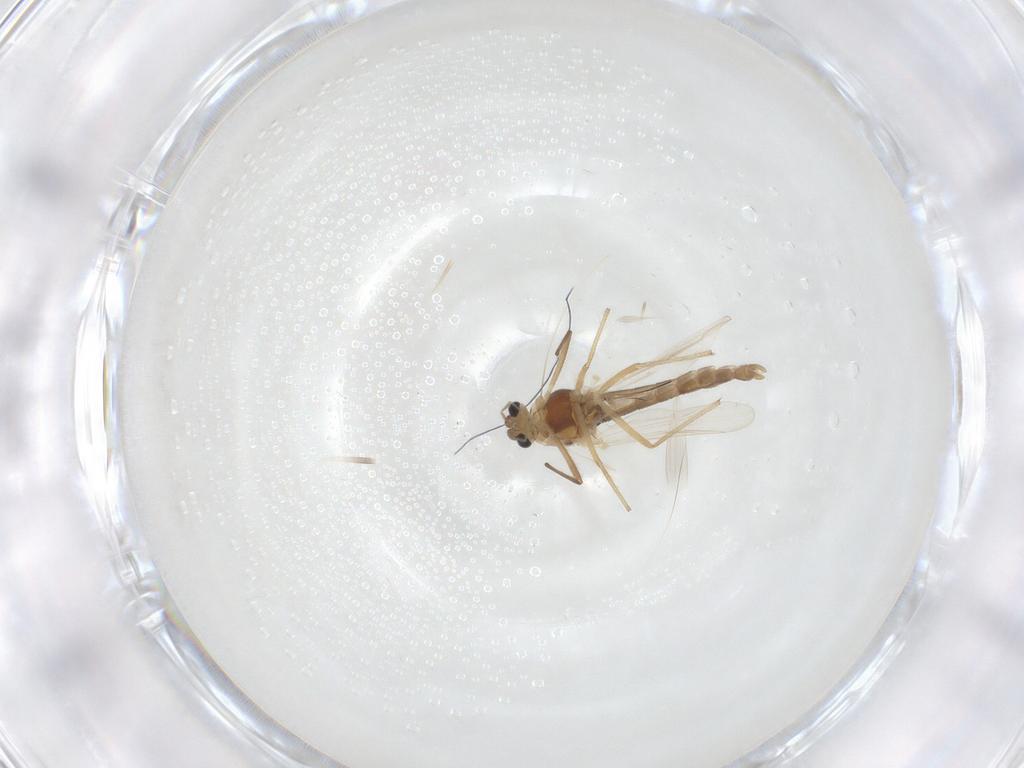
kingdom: Animalia
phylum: Arthropoda
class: Insecta
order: Diptera
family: Chironomidae
